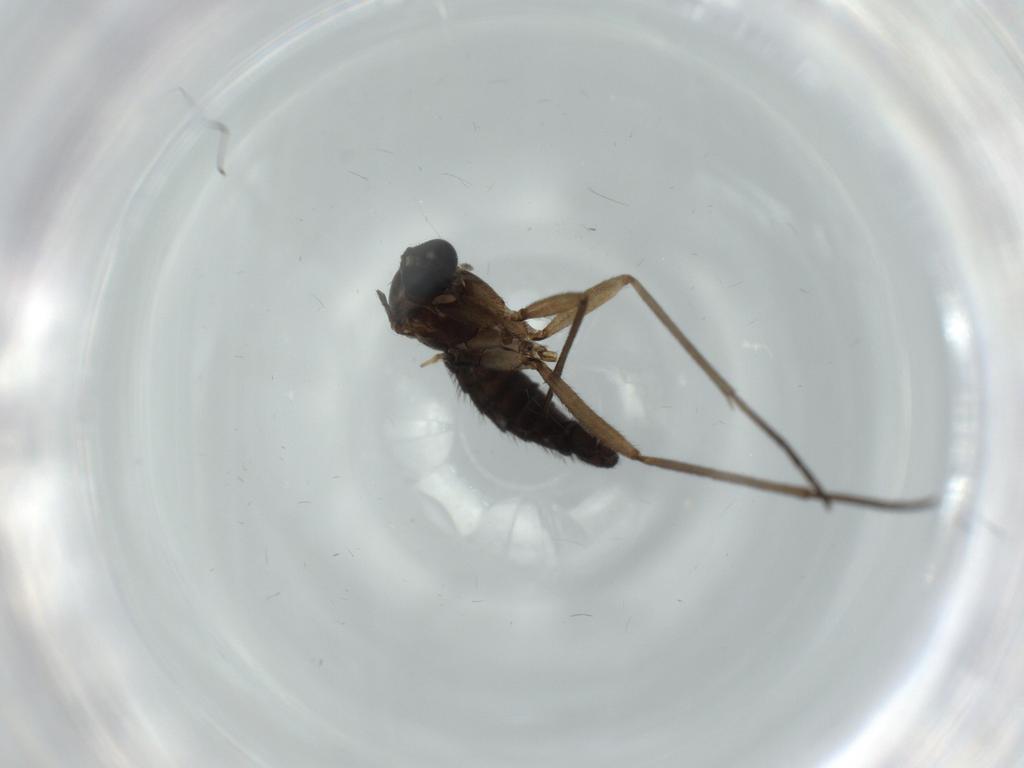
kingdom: Animalia
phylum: Arthropoda
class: Insecta
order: Diptera
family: Sciaridae
